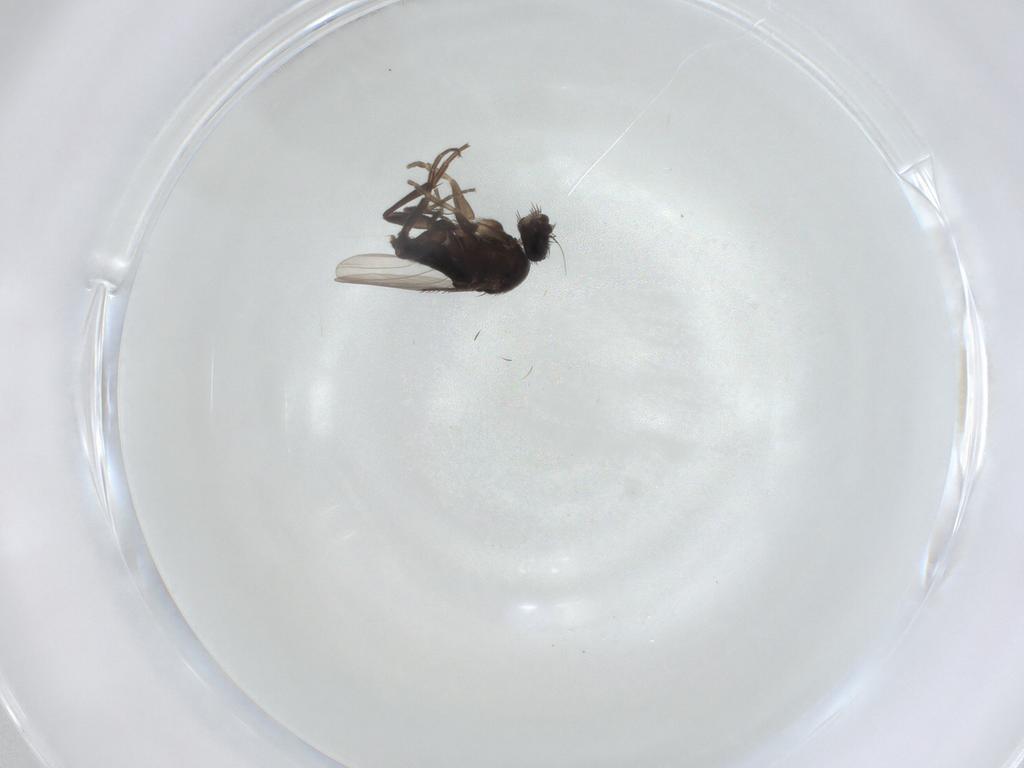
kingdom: Animalia
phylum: Arthropoda
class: Insecta
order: Diptera
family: Phoridae
